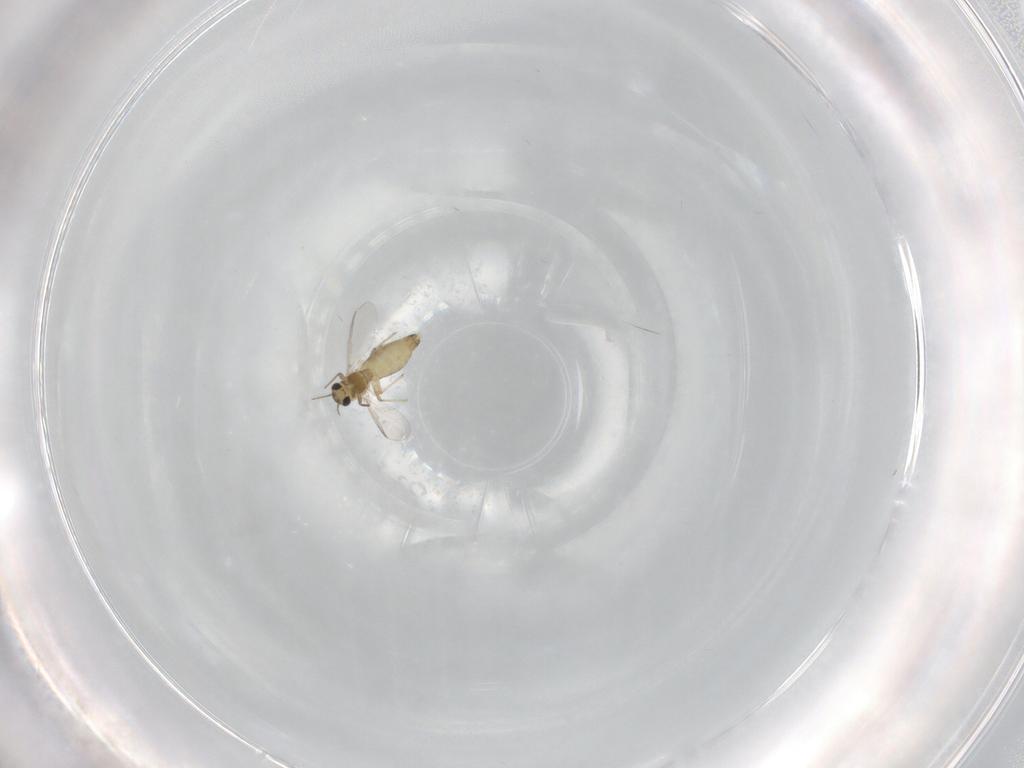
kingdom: Animalia
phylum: Arthropoda
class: Insecta
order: Diptera
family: Chironomidae
